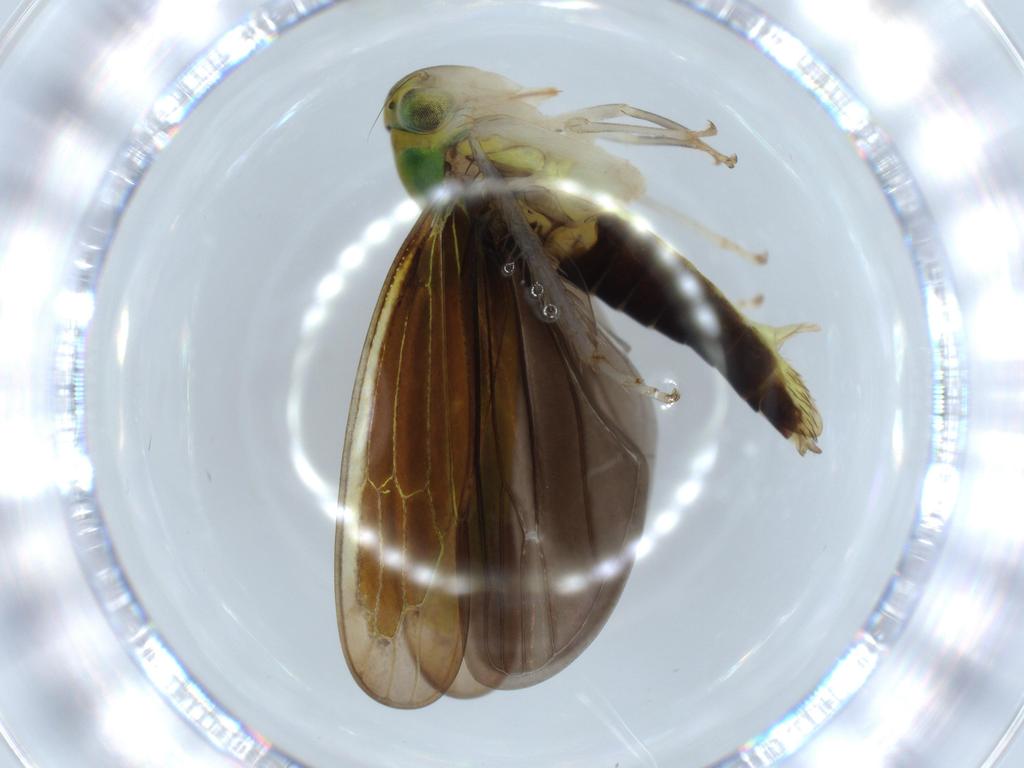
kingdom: Animalia
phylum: Arthropoda
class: Insecta
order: Hemiptera
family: Cicadellidae
